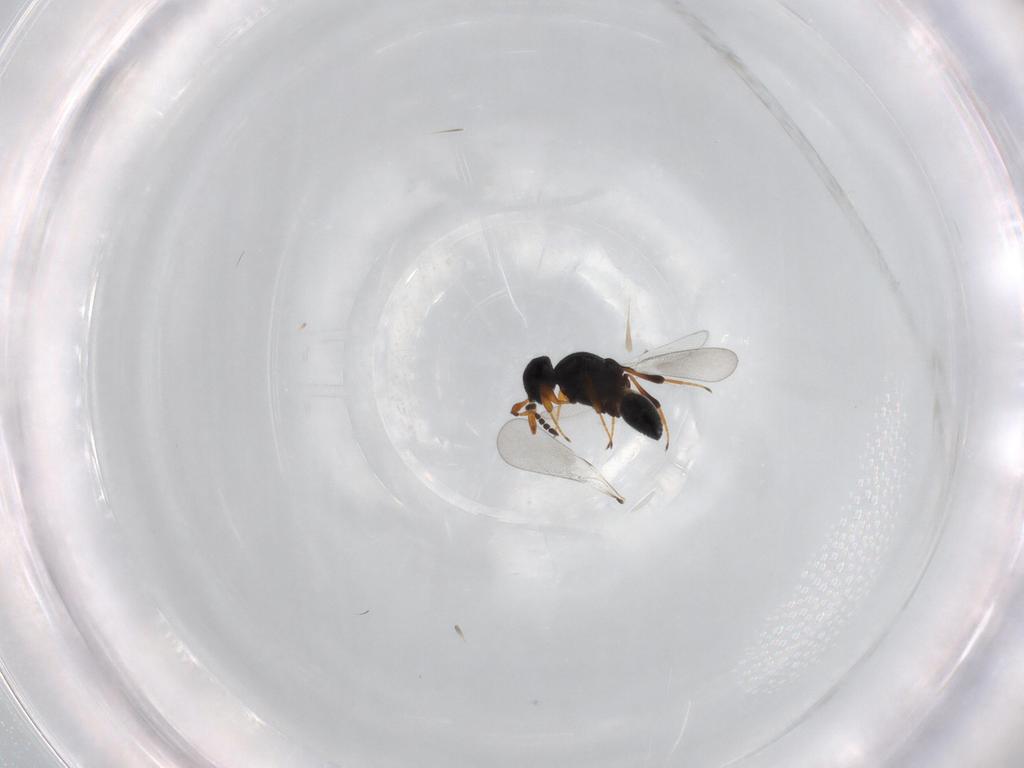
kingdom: Animalia
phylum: Arthropoda
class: Insecta
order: Hymenoptera
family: Platygastridae
